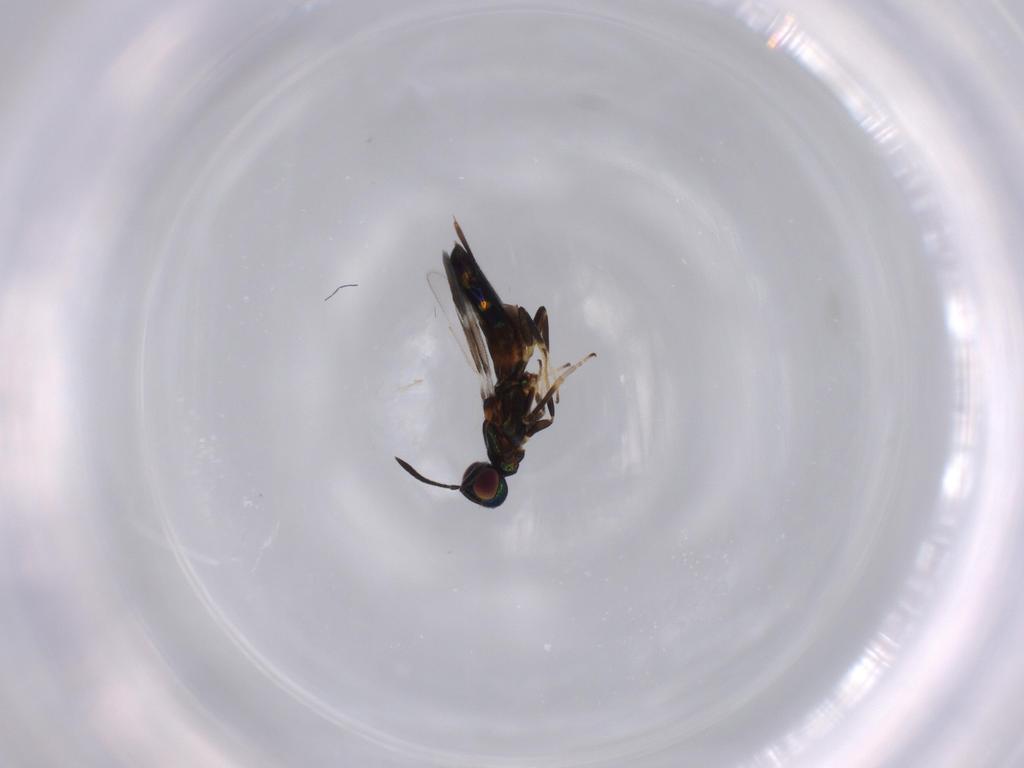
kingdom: Animalia
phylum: Arthropoda
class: Insecta
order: Hymenoptera
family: Eupelmidae
